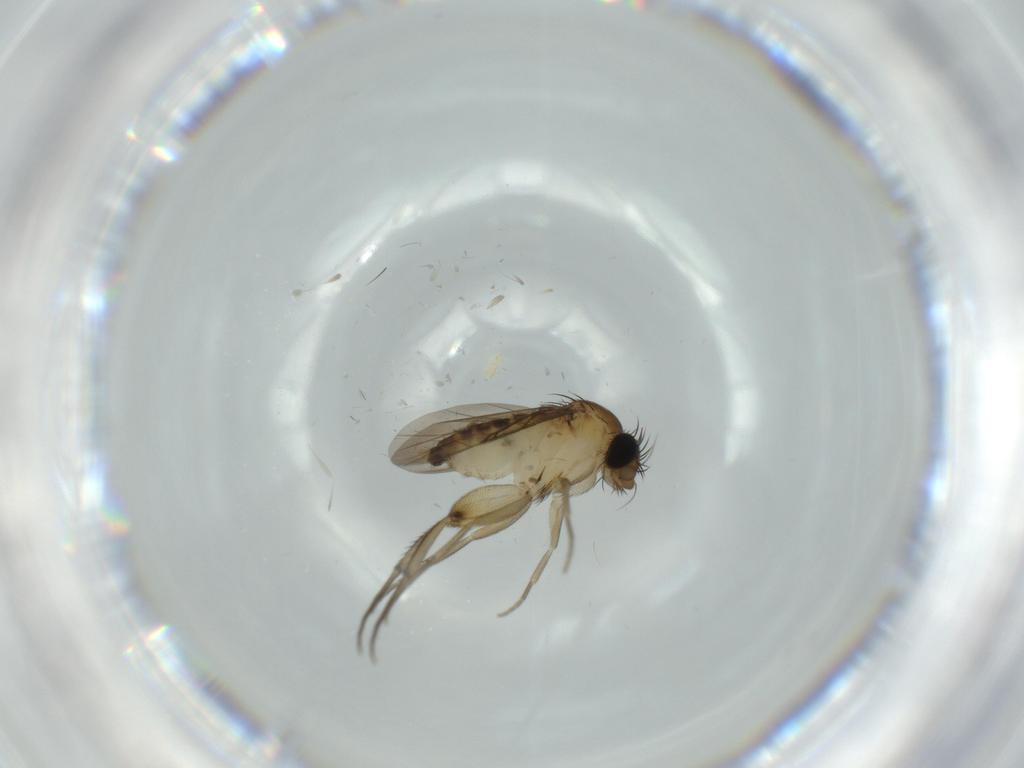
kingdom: Animalia
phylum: Arthropoda
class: Insecta
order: Diptera
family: Phoridae
